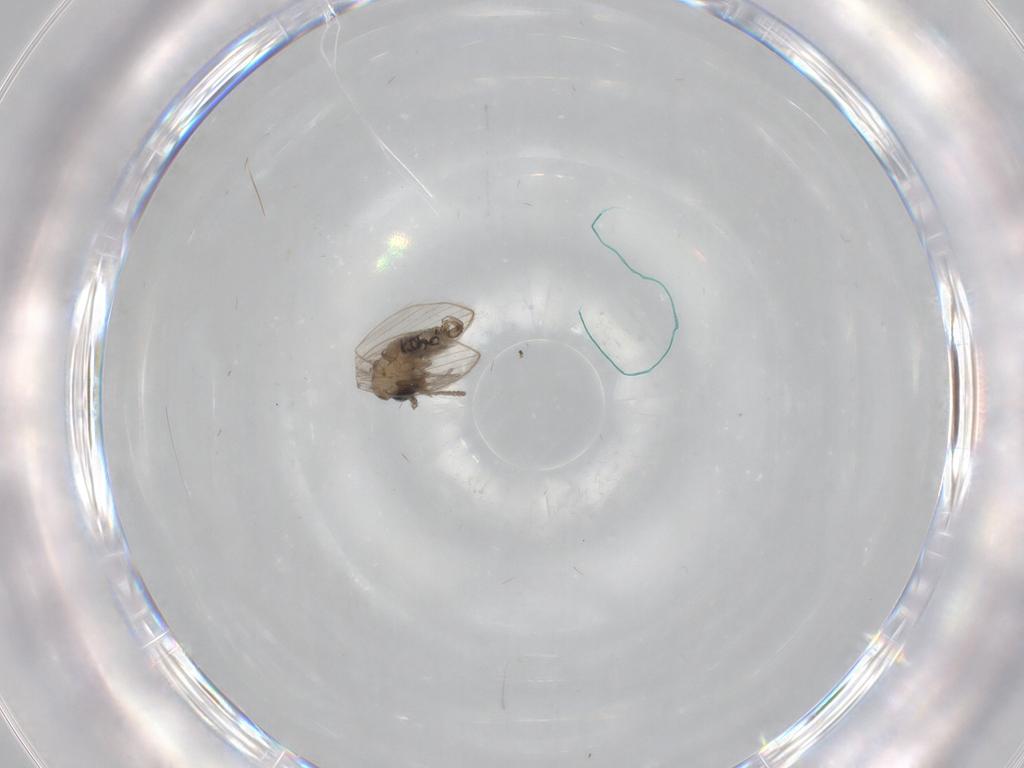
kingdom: Animalia
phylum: Arthropoda
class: Insecta
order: Diptera
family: Psychodidae
